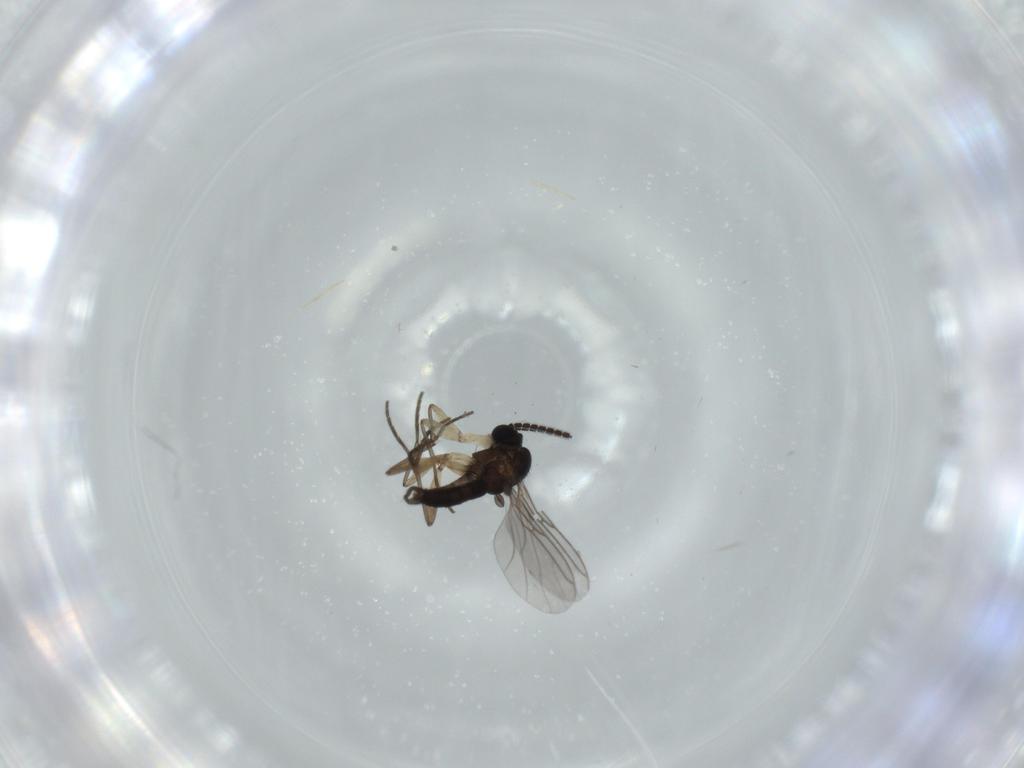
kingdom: Animalia
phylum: Arthropoda
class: Insecta
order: Diptera
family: Sciaridae
